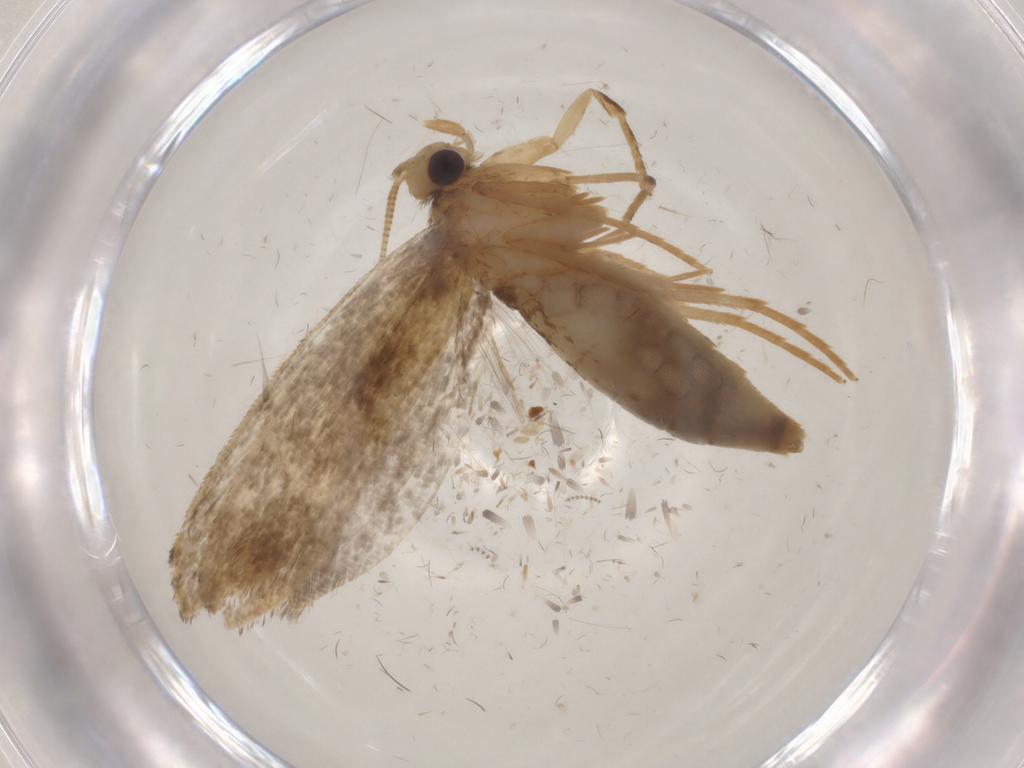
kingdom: Animalia
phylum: Arthropoda
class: Insecta
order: Lepidoptera
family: Tineidae
